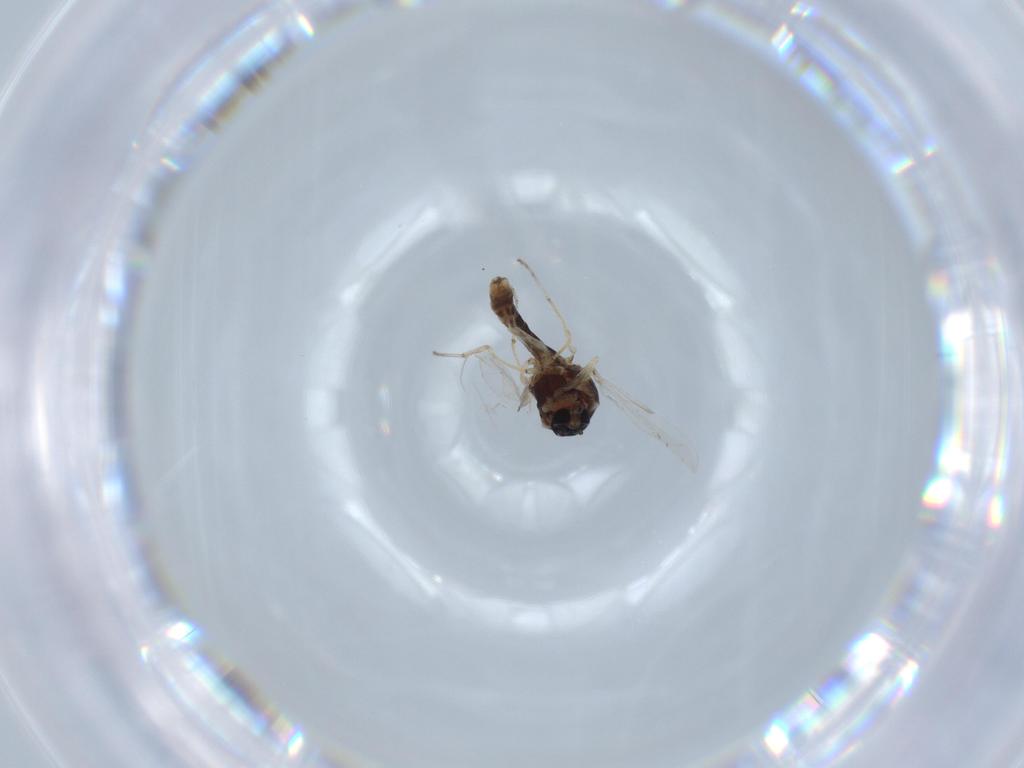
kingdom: Animalia
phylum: Arthropoda
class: Insecta
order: Diptera
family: Ceratopogonidae
